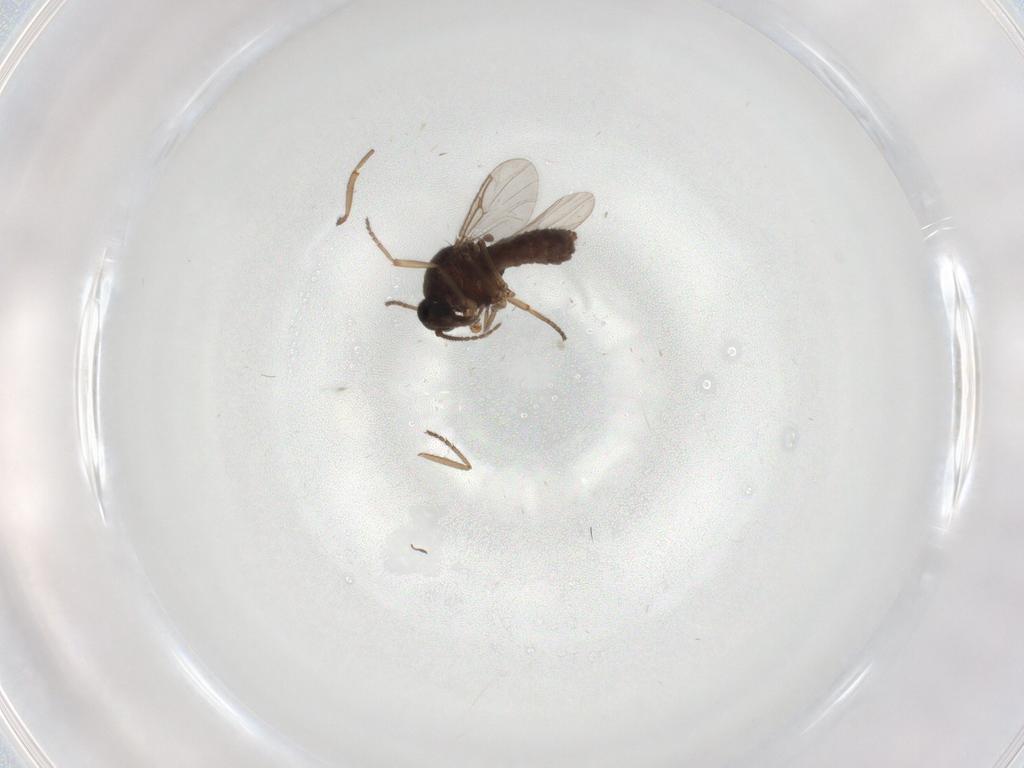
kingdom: Animalia
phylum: Arthropoda
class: Insecta
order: Diptera
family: Ceratopogonidae
